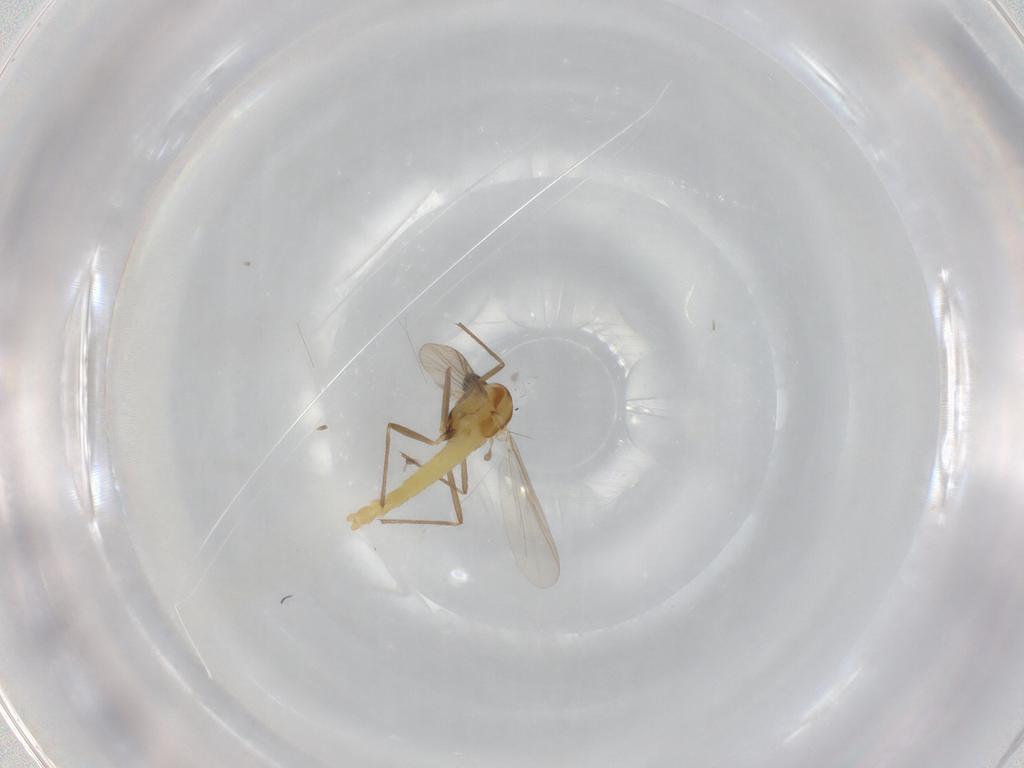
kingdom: Animalia
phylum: Arthropoda
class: Insecta
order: Diptera
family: Chironomidae
